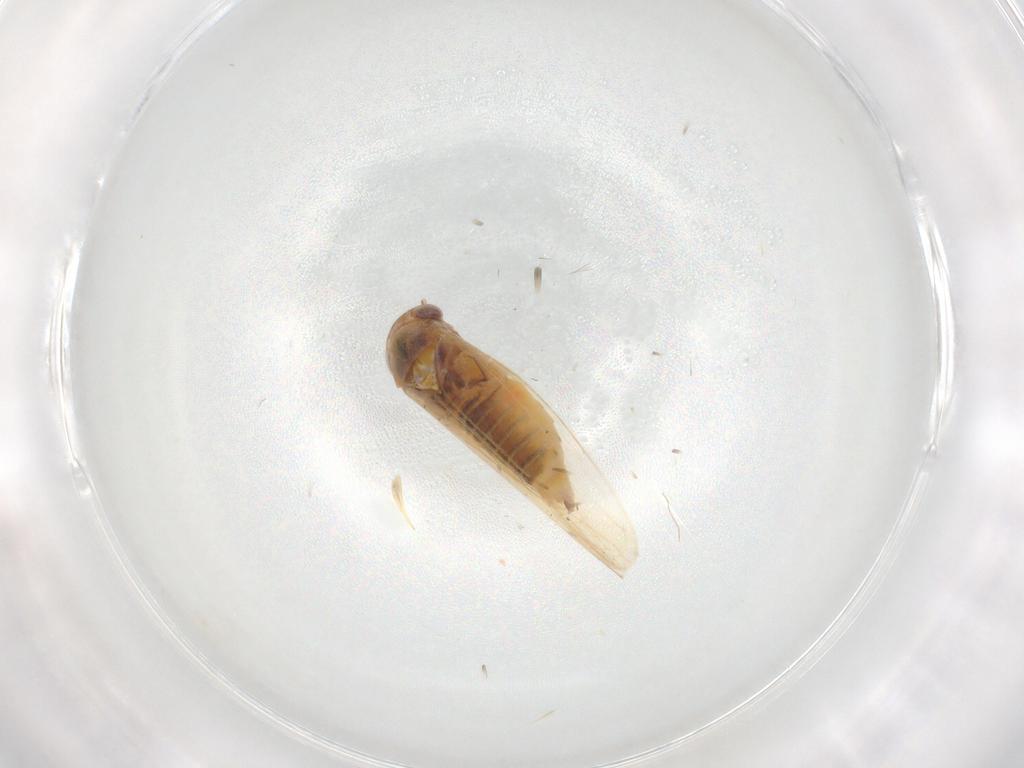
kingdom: Animalia
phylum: Arthropoda
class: Insecta
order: Hemiptera
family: Cicadellidae
